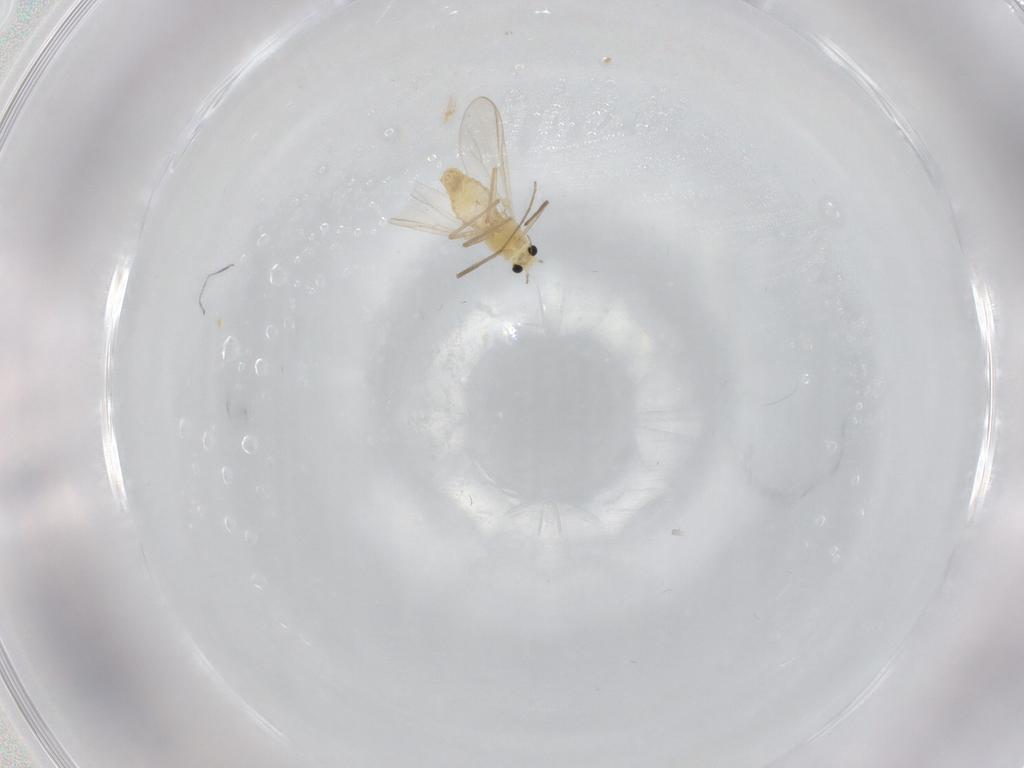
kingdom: Animalia
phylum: Arthropoda
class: Insecta
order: Diptera
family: Chironomidae
